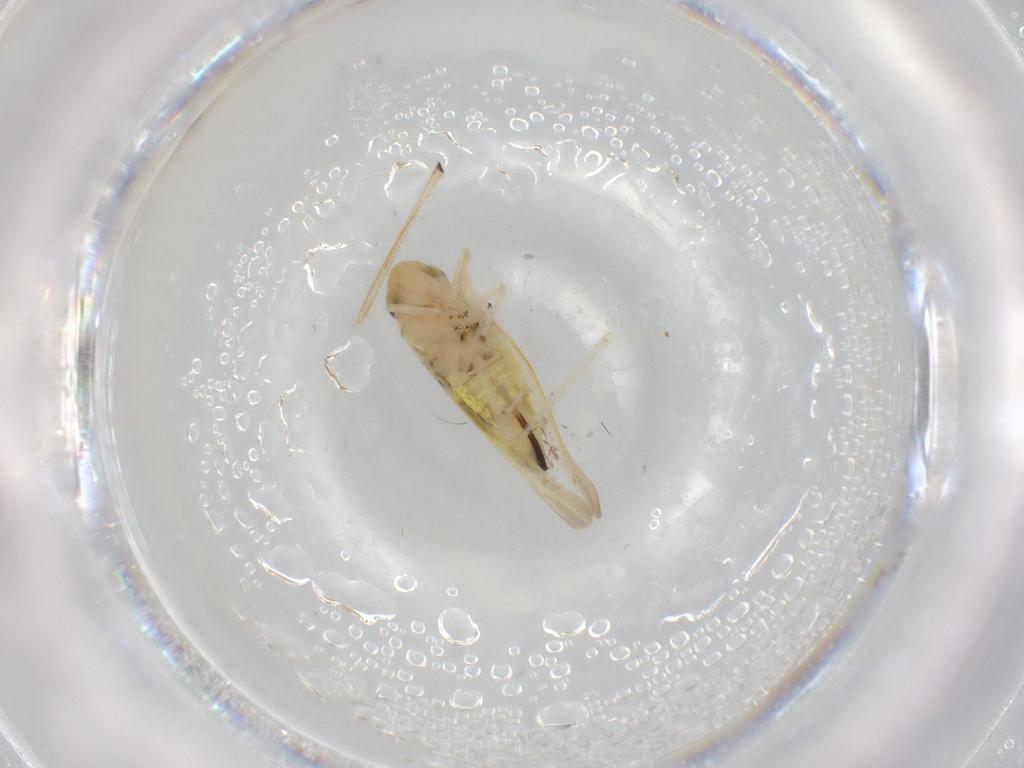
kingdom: Animalia
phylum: Arthropoda
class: Insecta
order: Hemiptera
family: Cicadellidae
